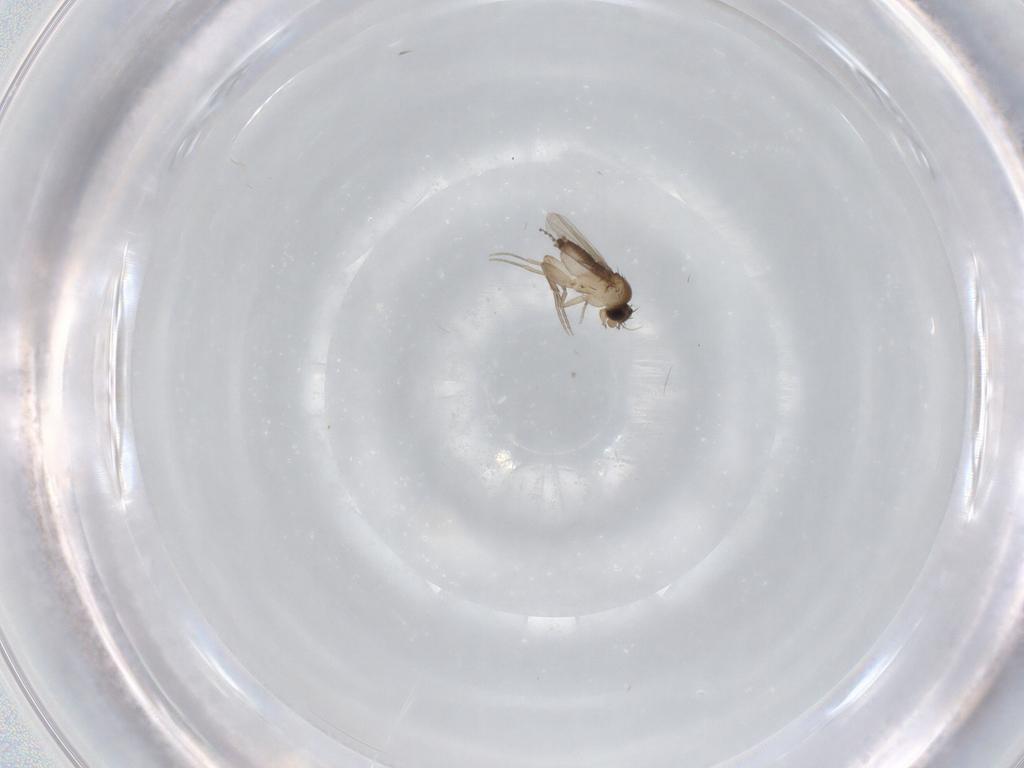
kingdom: Animalia
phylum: Arthropoda
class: Insecta
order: Diptera
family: Phoridae
